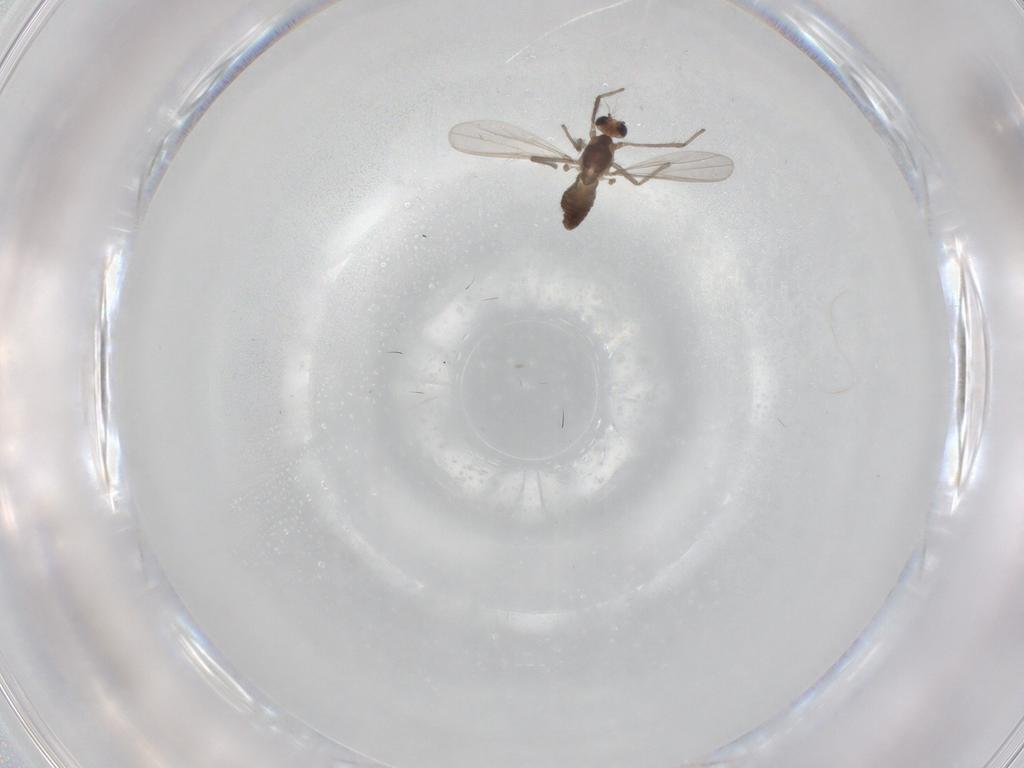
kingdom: Animalia
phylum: Arthropoda
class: Insecta
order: Diptera
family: Chironomidae
